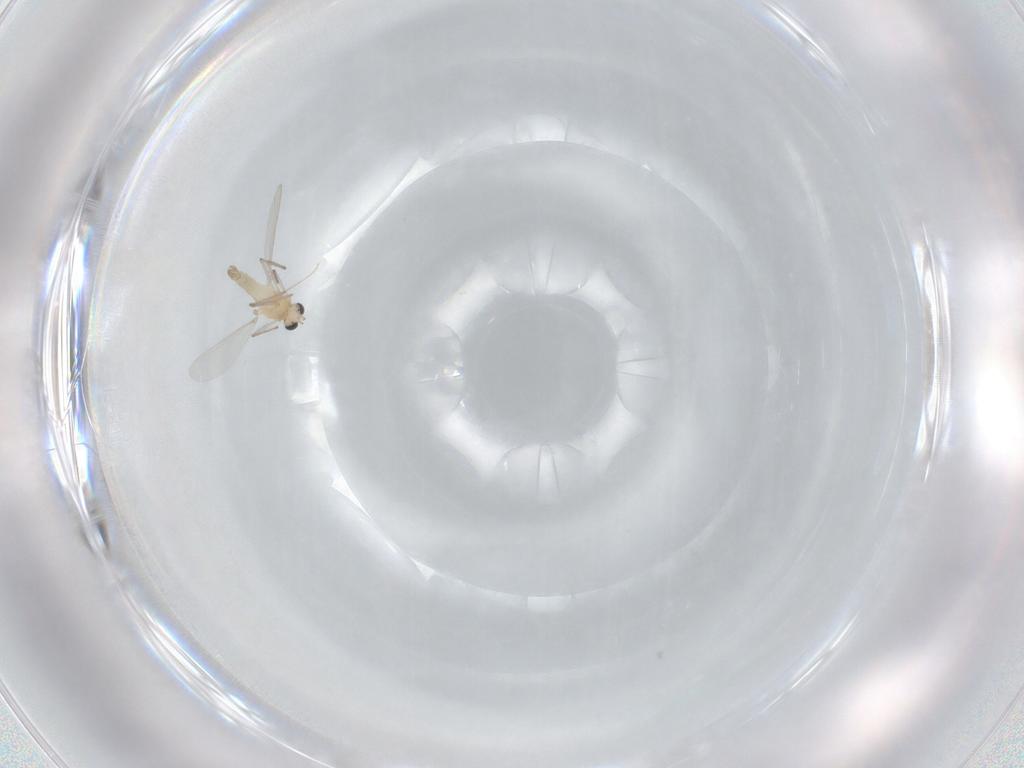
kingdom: Animalia
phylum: Arthropoda
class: Insecta
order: Diptera
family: Chironomidae
